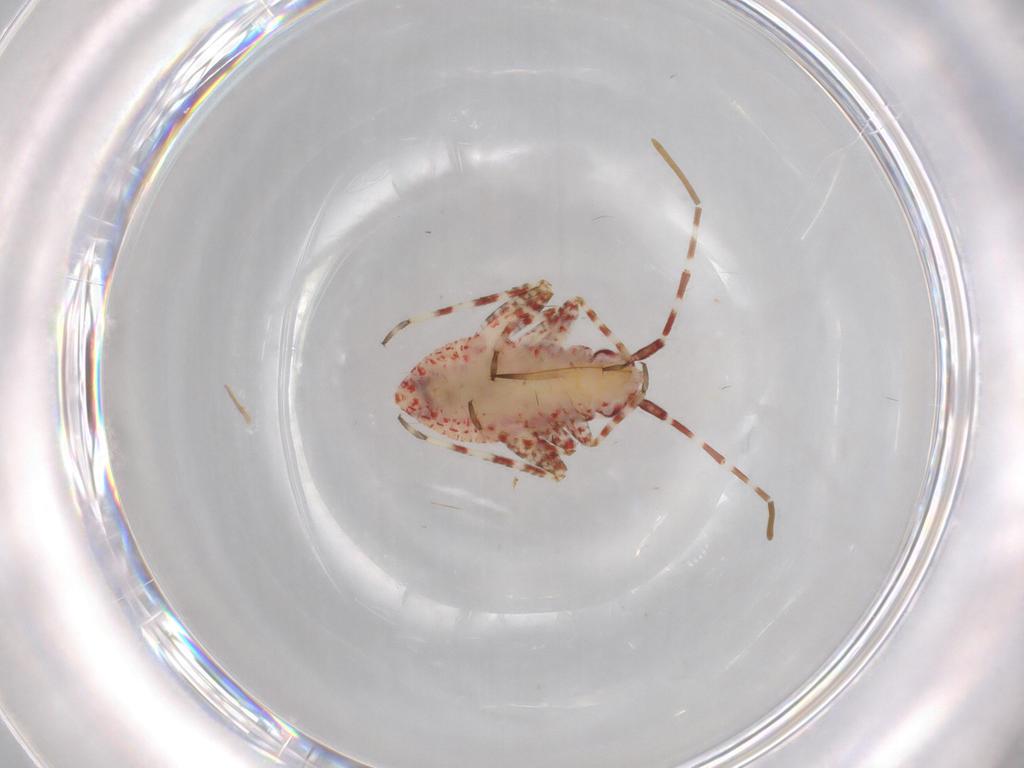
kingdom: Animalia
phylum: Arthropoda
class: Insecta
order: Hemiptera
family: Miridae
